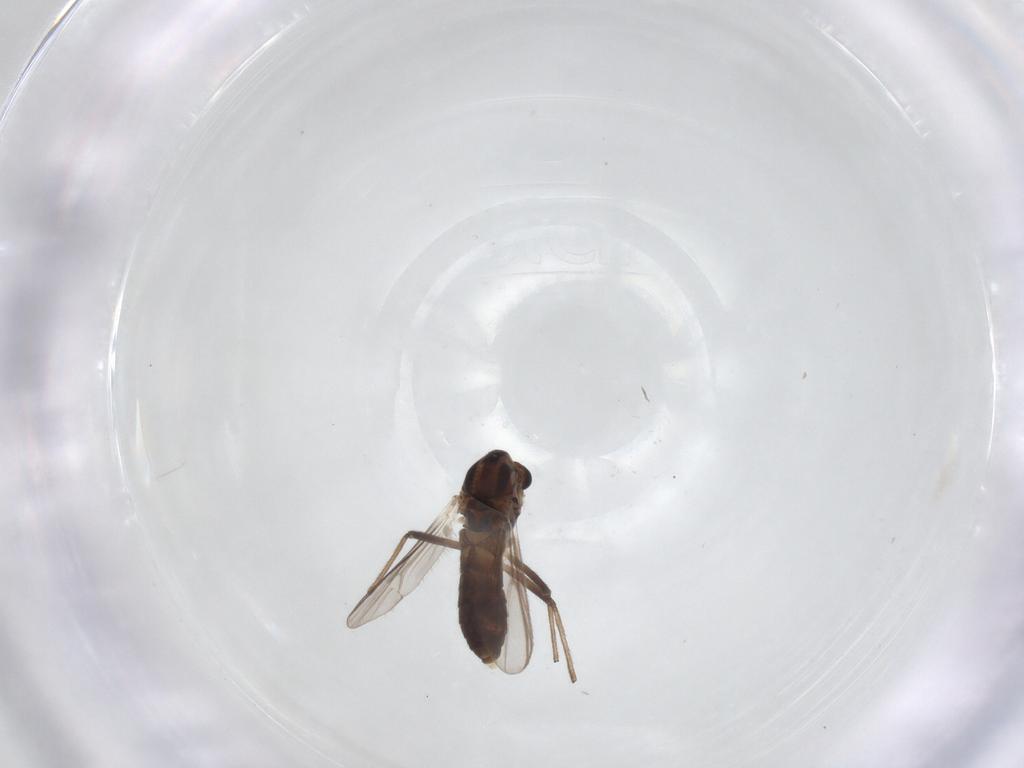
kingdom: Animalia
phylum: Arthropoda
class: Insecta
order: Diptera
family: Chironomidae
